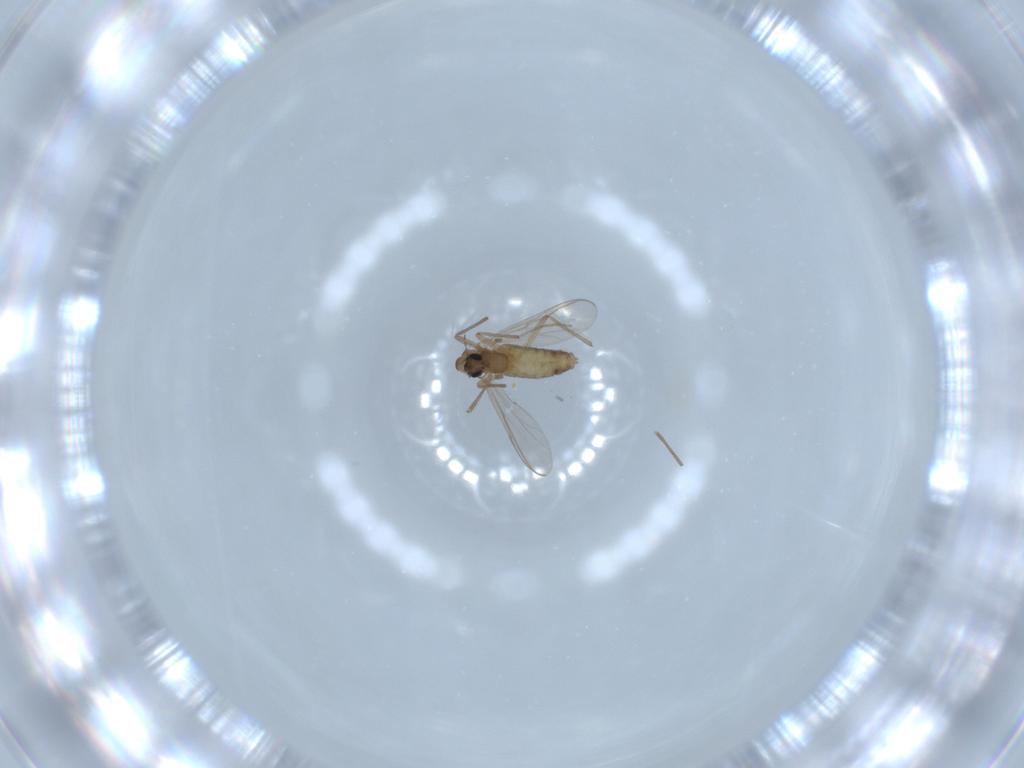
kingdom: Animalia
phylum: Arthropoda
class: Insecta
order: Diptera
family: Chironomidae
